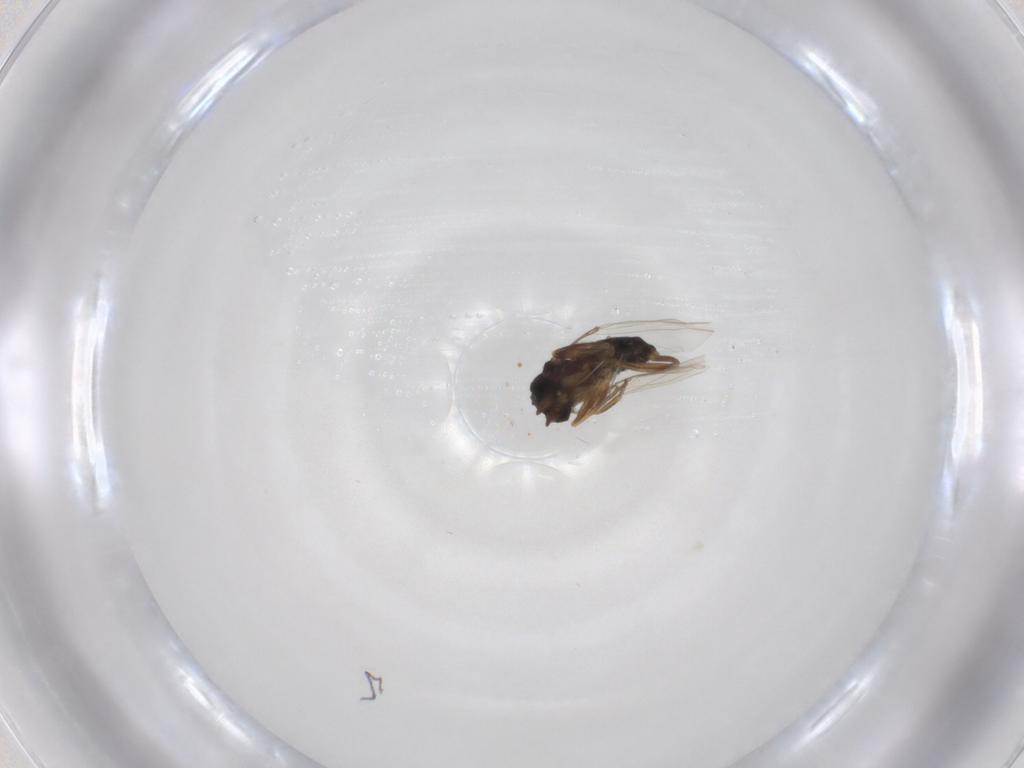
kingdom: Animalia
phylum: Arthropoda
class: Insecta
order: Diptera
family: Phoridae
